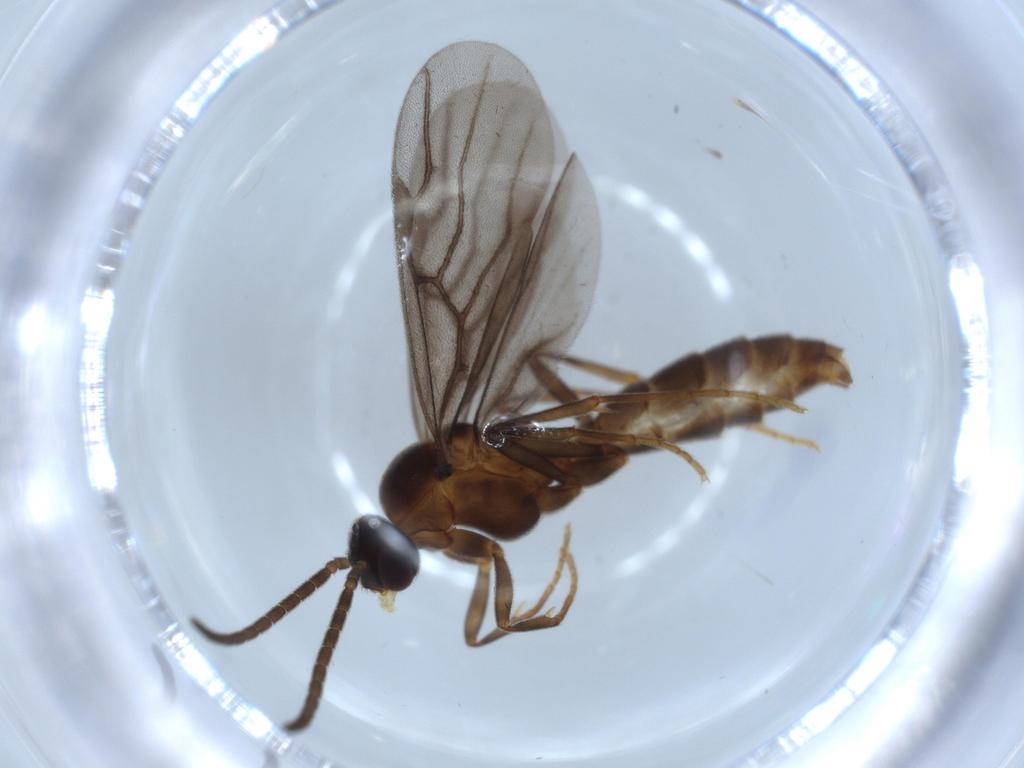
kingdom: Animalia
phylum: Arthropoda
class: Insecta
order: Hymenoptera
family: Formicidae
